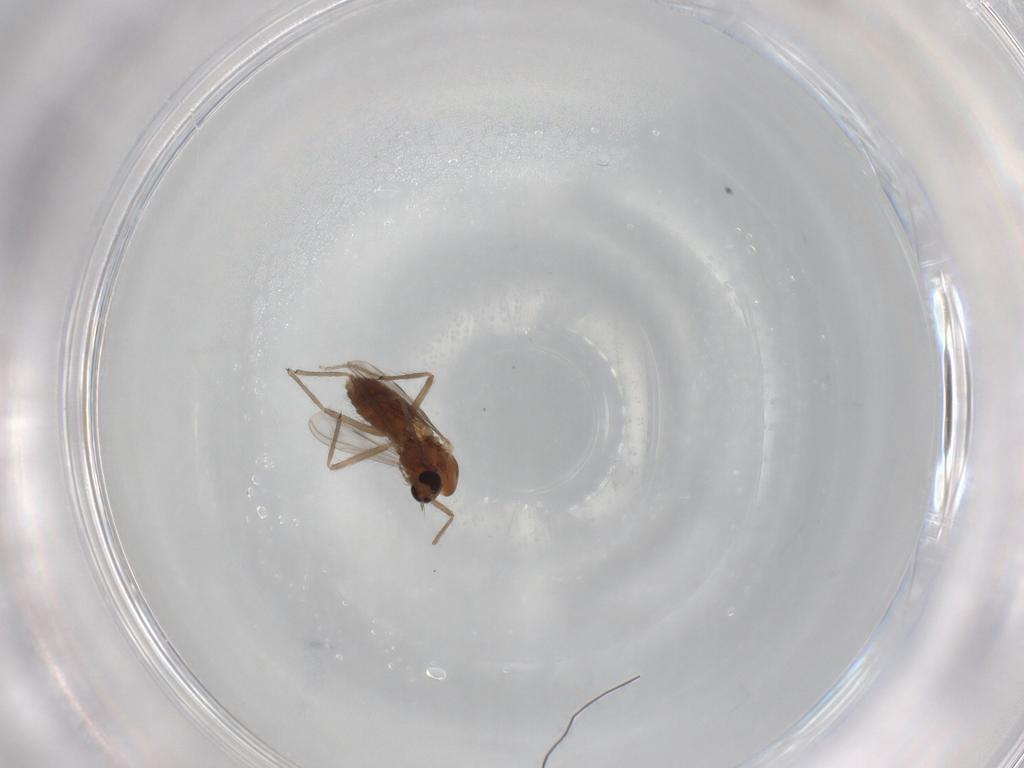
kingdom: Animalia
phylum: Arthropoda
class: Insecta
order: Diptera
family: Chironomidae
